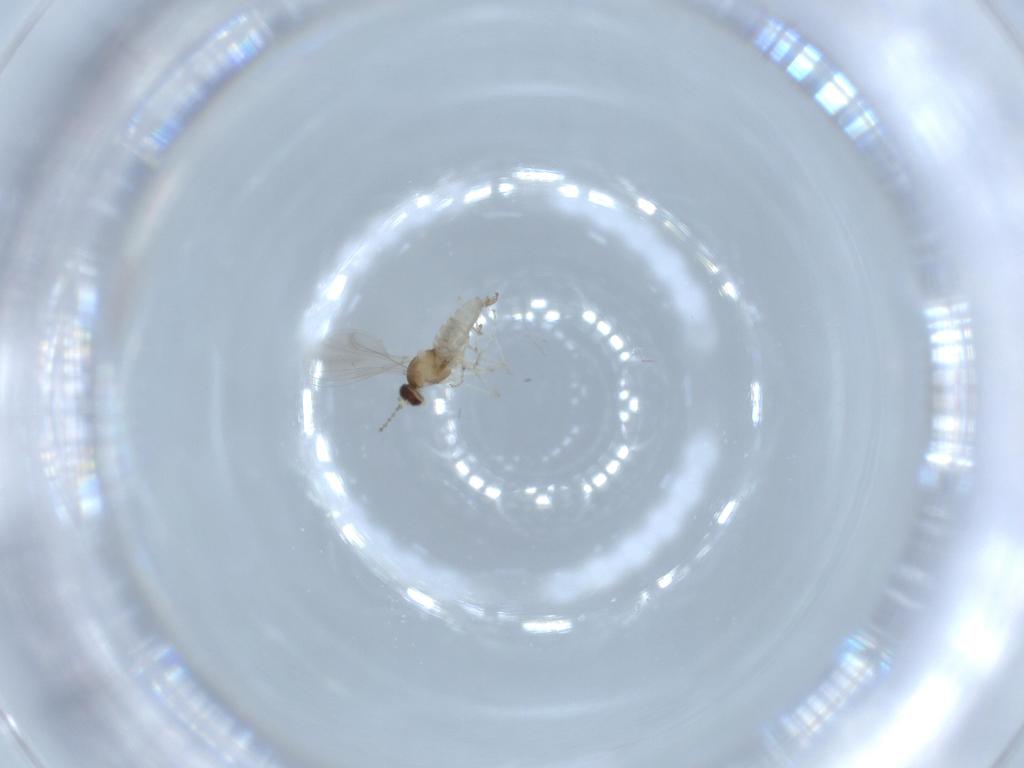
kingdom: Animalia
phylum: Arthropoda
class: Insecta
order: Diptera
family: Cecidomyiidae
